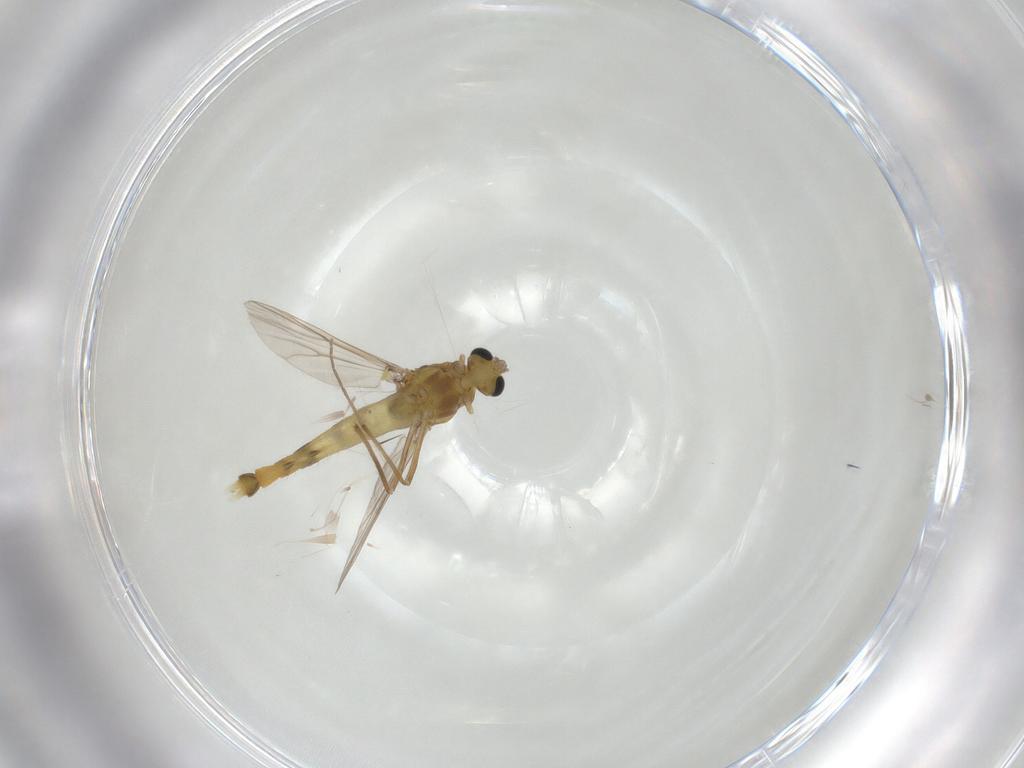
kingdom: Animalia
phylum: Arthropoda
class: Insecta
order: Diptera
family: Chironomidae
